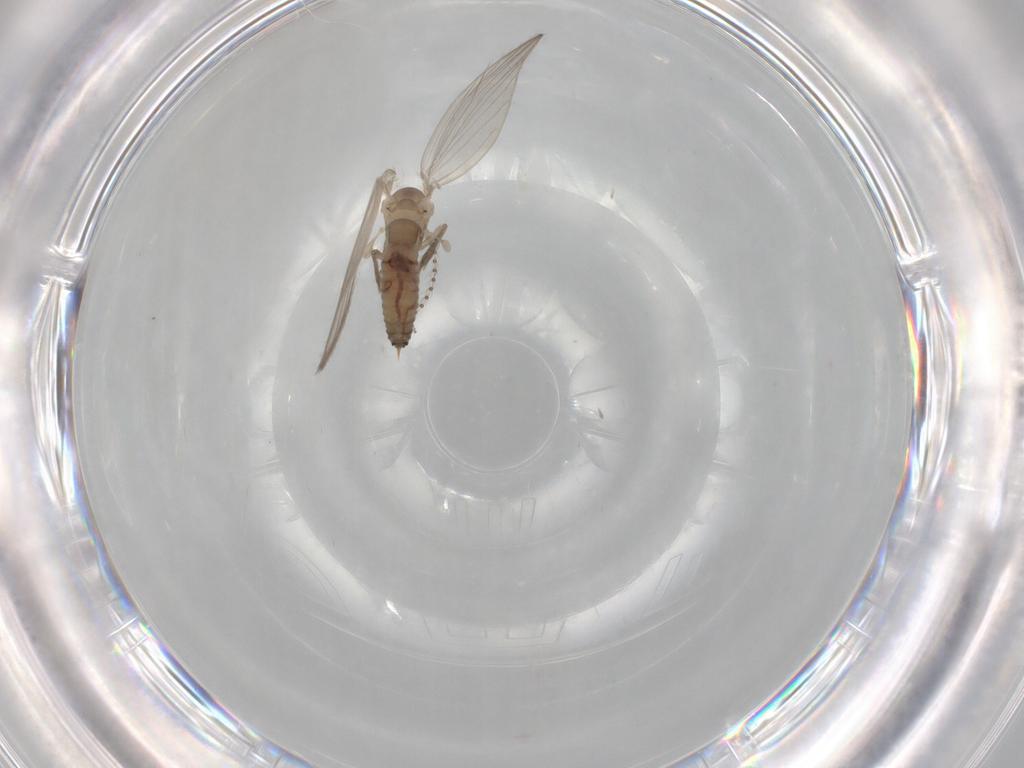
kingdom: Animalia
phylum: Arthropoda
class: Insecta
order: Diptera
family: Psychodidae
